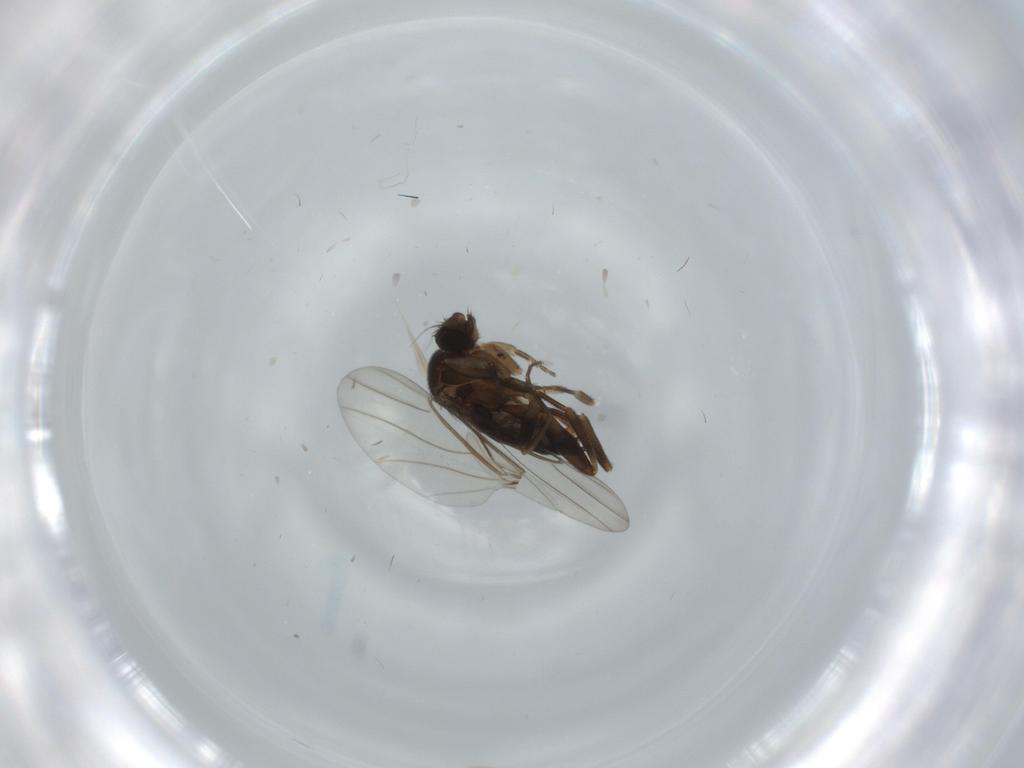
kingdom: Animalia
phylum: Arthropoda
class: Insecta
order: Diptera
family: Phoridae
